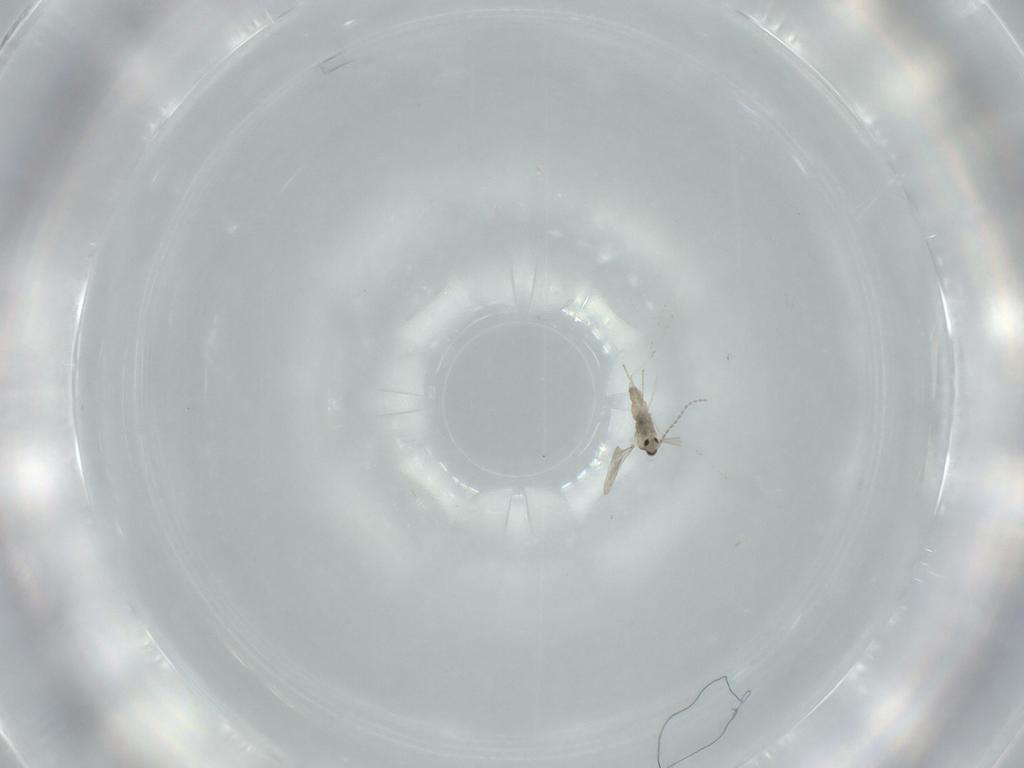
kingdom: Animalia
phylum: Arthropoda
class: Insecta
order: Diptera
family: Cecidomyiidae
